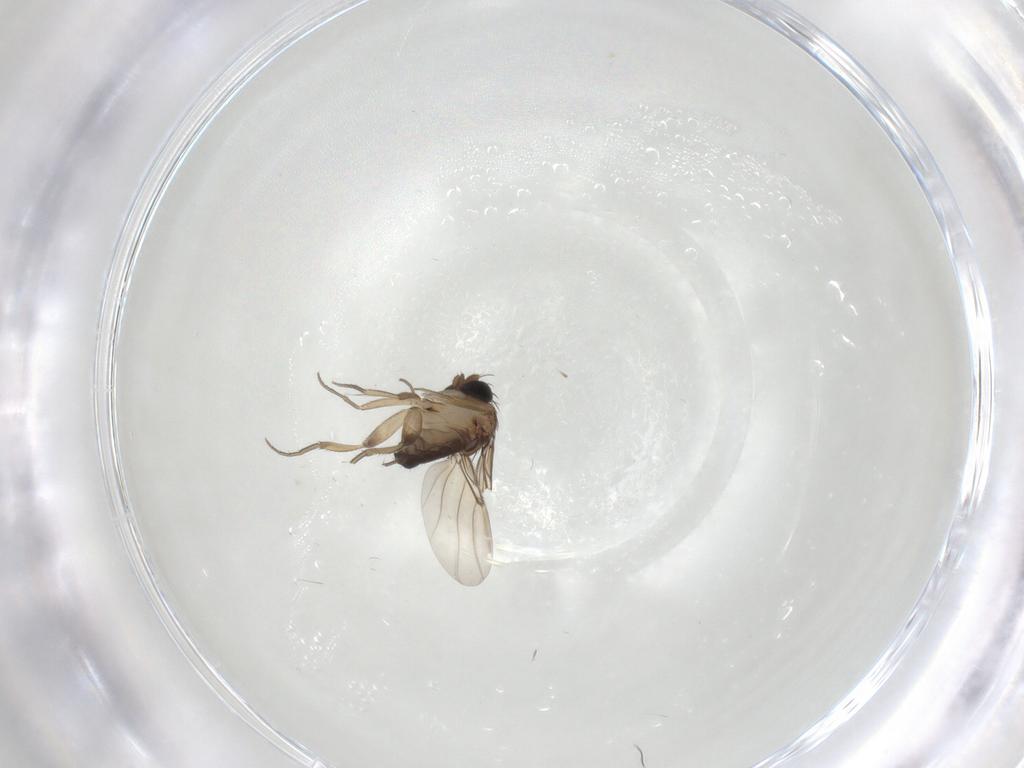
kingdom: Animalia
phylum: Arthropoda
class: Insecta
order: Diptera
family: Phoridae
